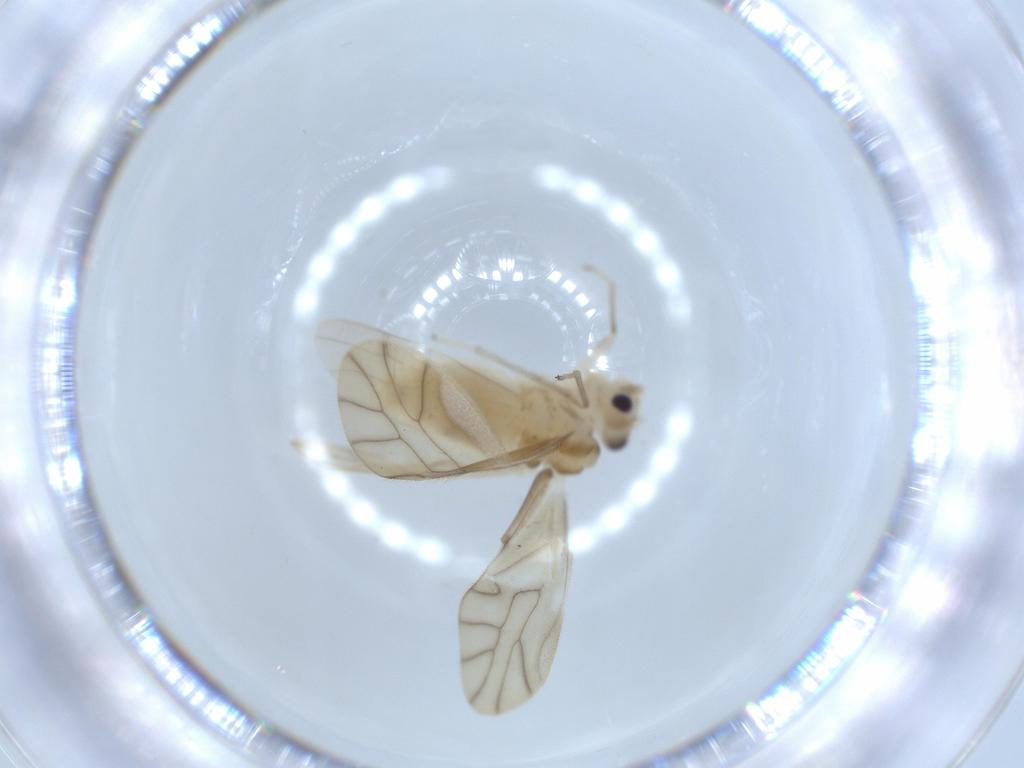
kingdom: Animalia
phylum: Arthropoda
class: Insecta
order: Psocodea
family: Caeciliusidae
